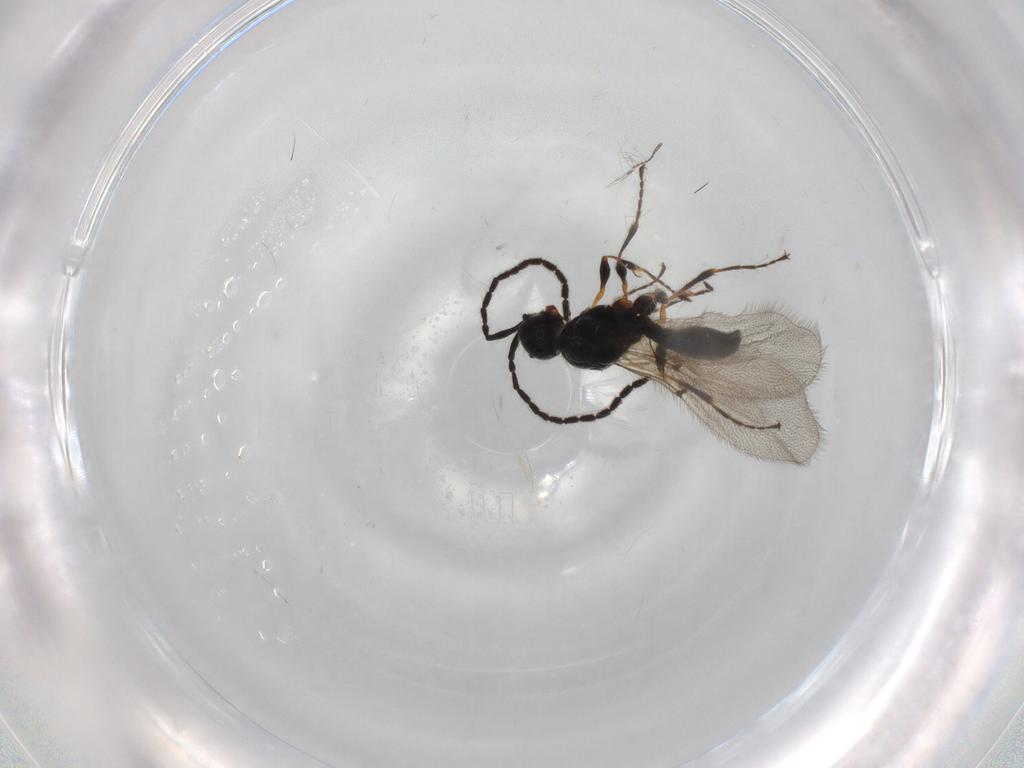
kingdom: Animalia
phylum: Arthropoda
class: Insecta
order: Hymenoptera
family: Diapriidae
